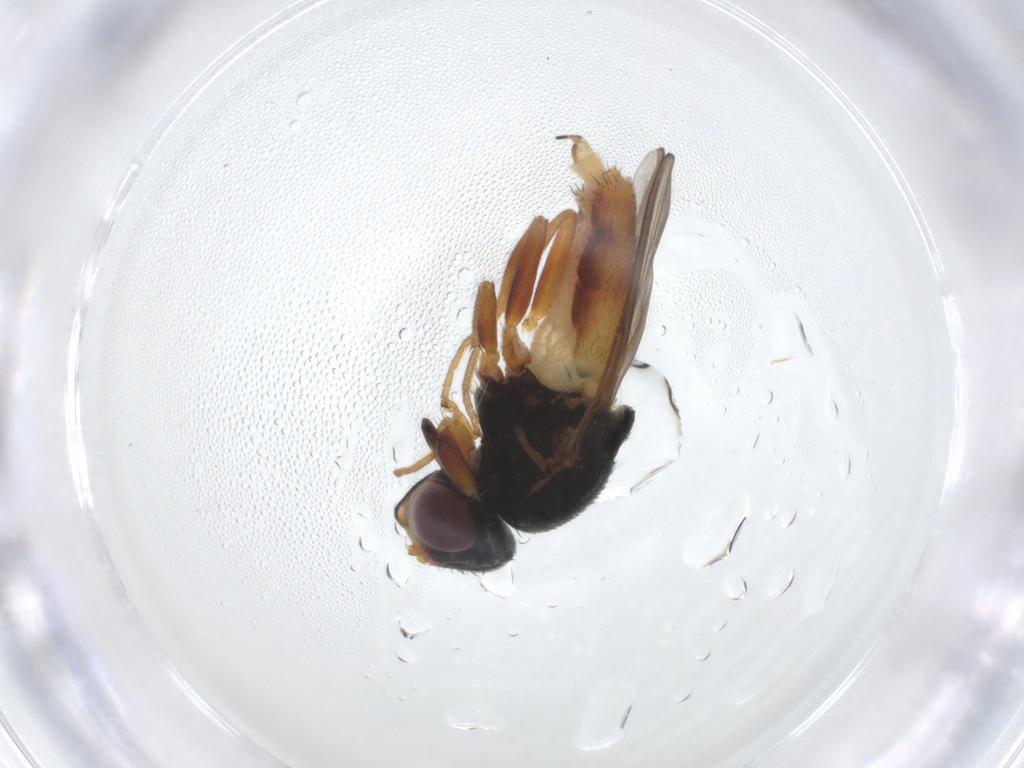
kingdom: Animalia
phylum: Arthropoda
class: Insecta
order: Diptera
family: Chloropidae
